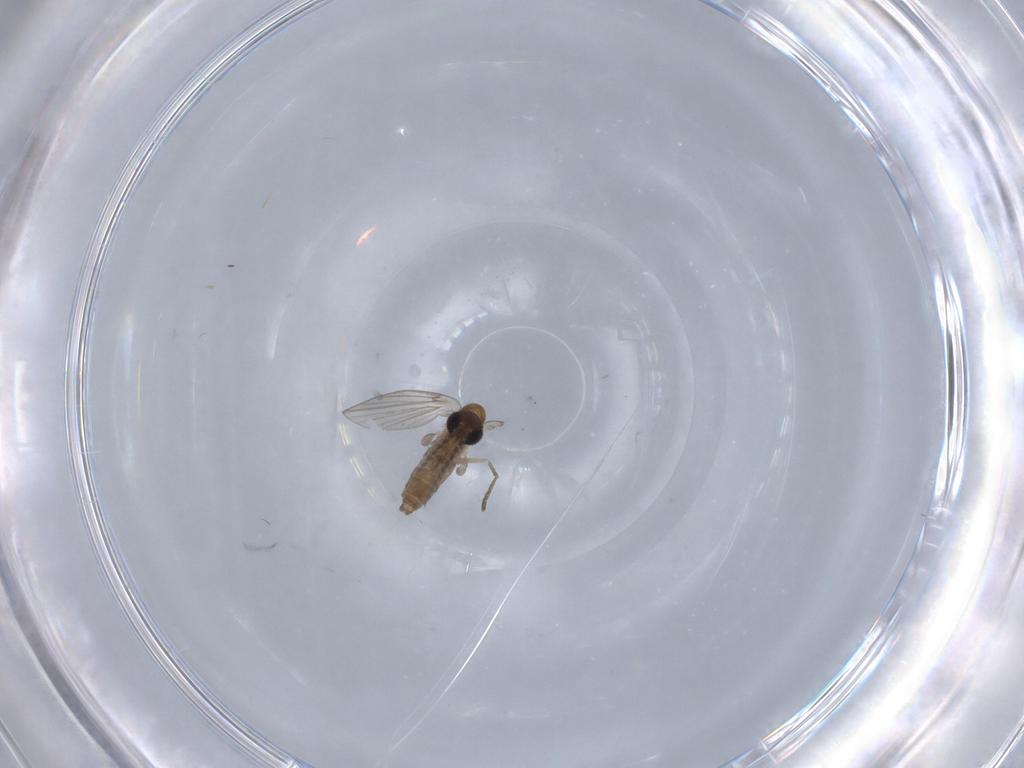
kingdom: Animalia
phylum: Arthropoda
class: Insecta
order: Diptera
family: Mycetophilidae
